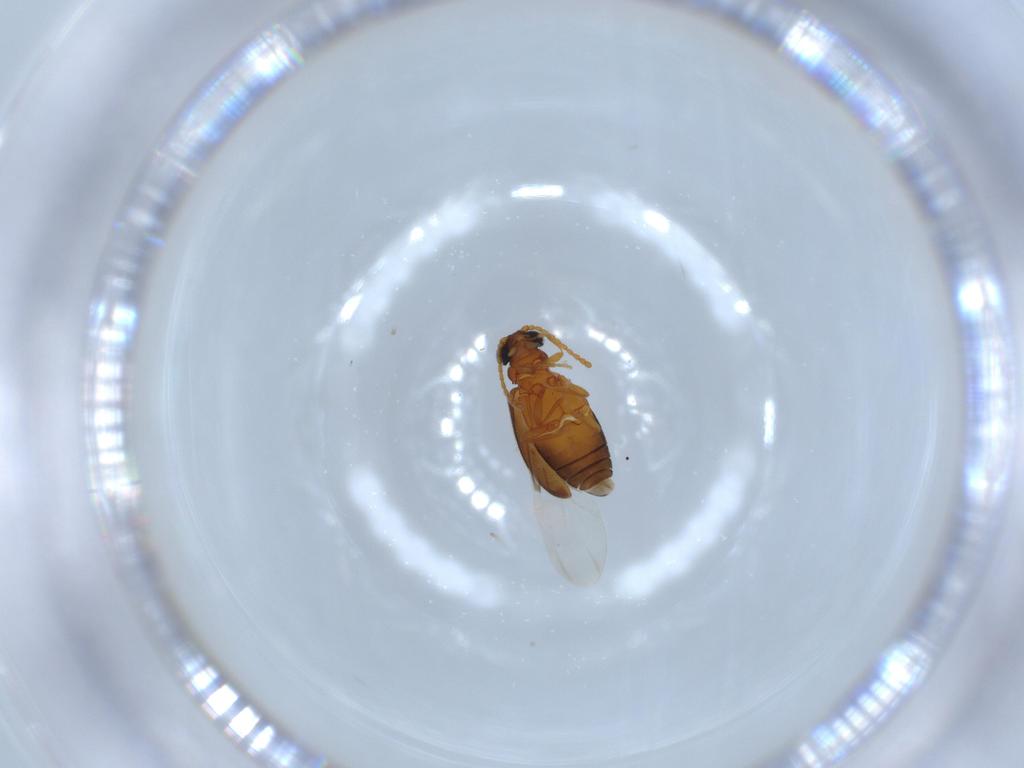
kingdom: Animalia
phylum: Arthropoda
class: Insecta
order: Coleoptera
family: Aderidae
